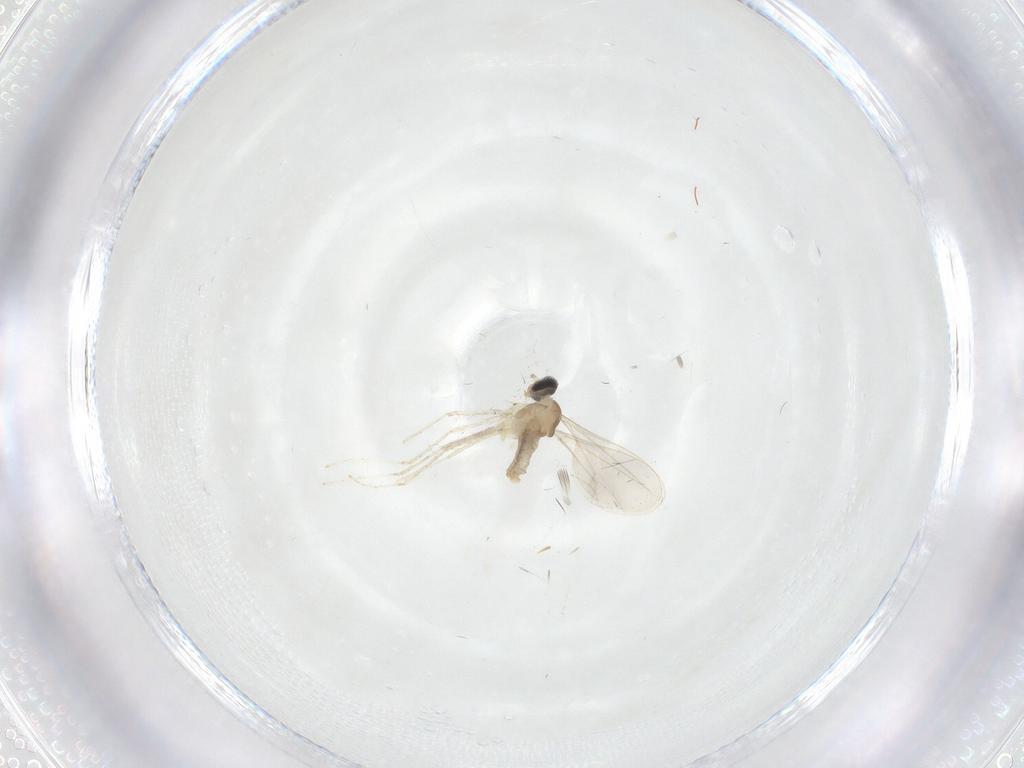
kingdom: Animalia
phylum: Arthropoda
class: Insecta
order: Diptera
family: Cecidomyiidae
